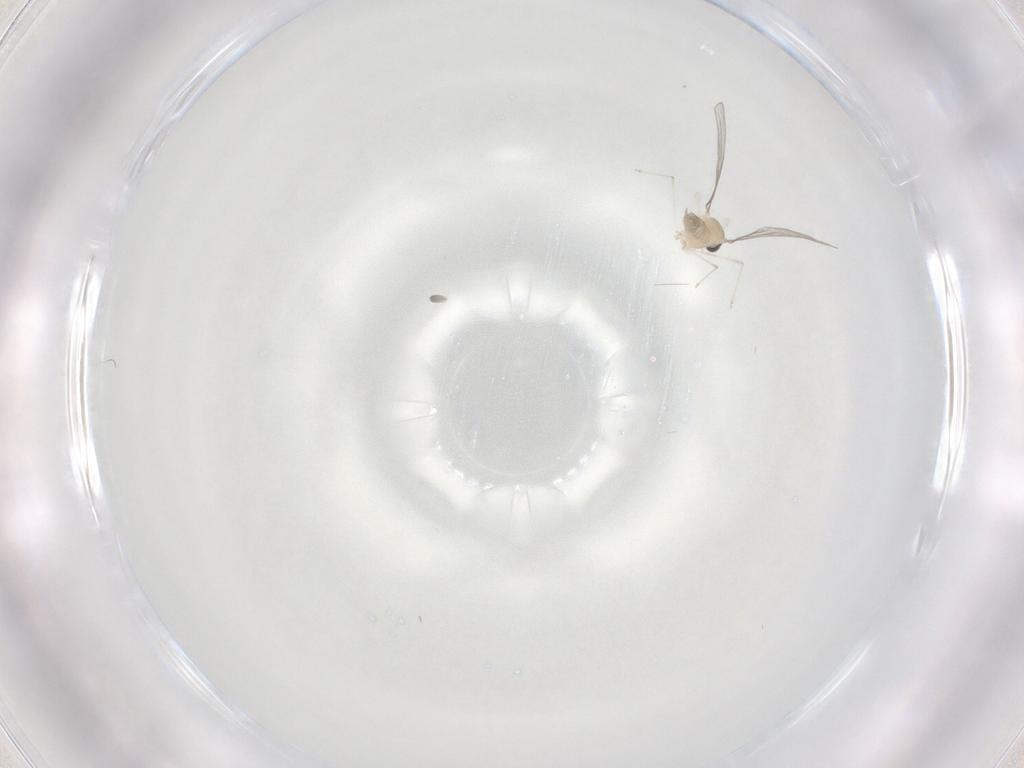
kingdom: Animalia
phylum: Arthropoda
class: Insecta
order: Diptera
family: Cecidomyiidae
